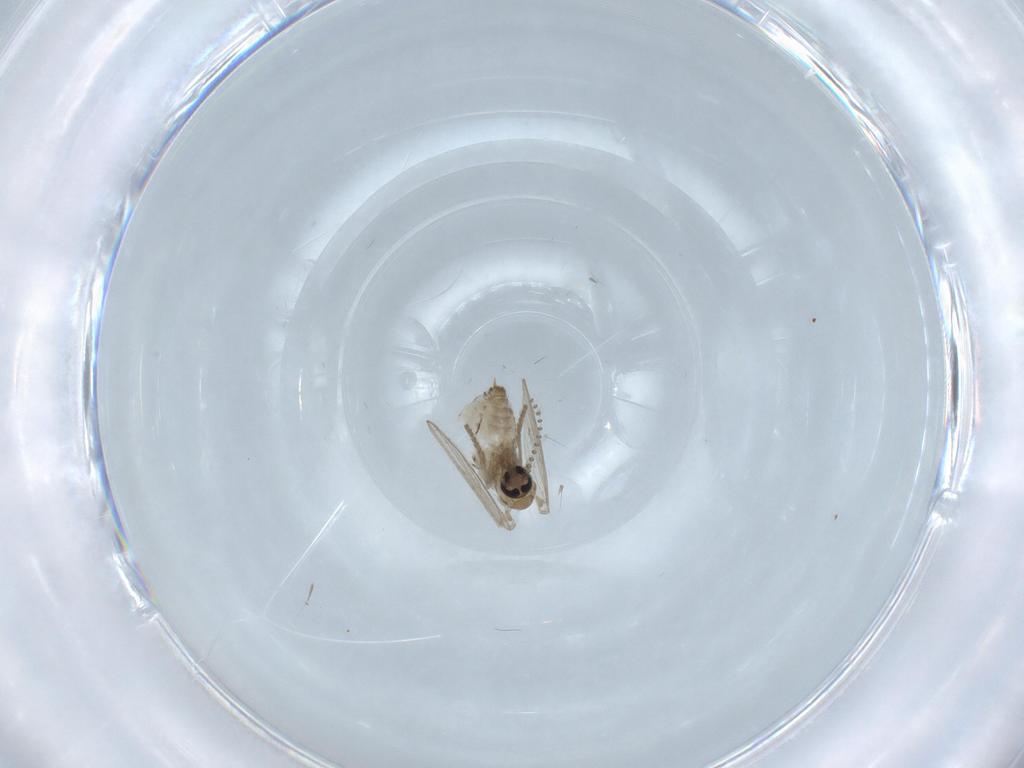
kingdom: Animalia
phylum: Arthropoda
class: Insecta
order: Diptera
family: Psychodidae
